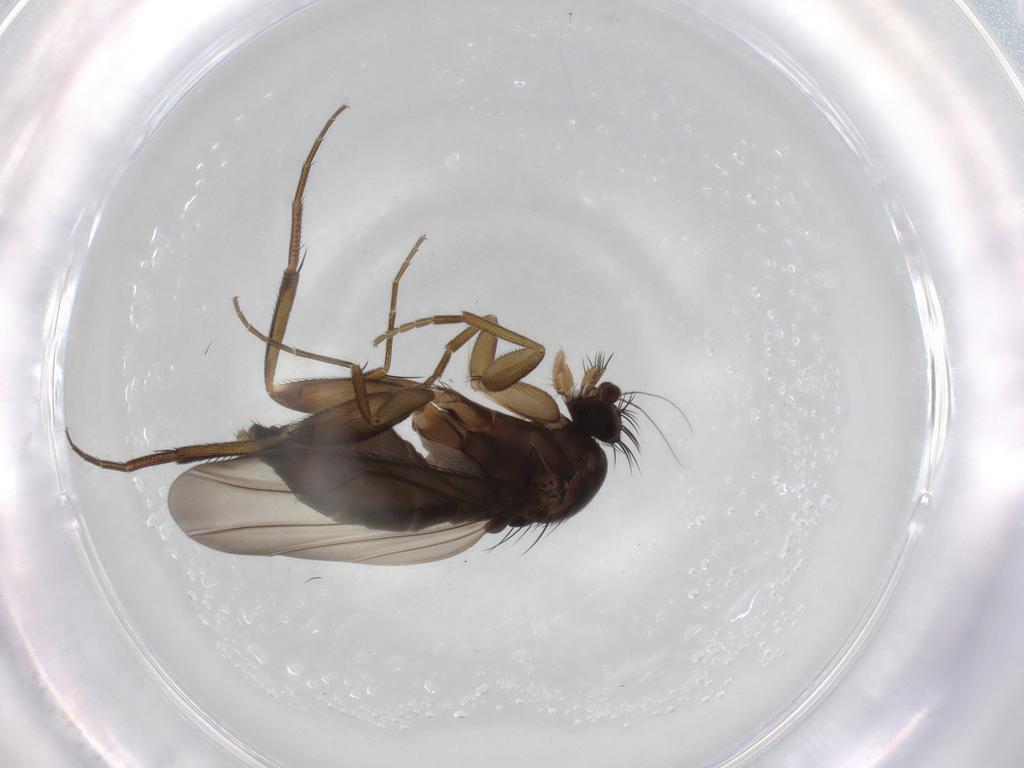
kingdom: Animalia
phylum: Arthropoda
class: Insecta
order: Diptera
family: Phoridae
